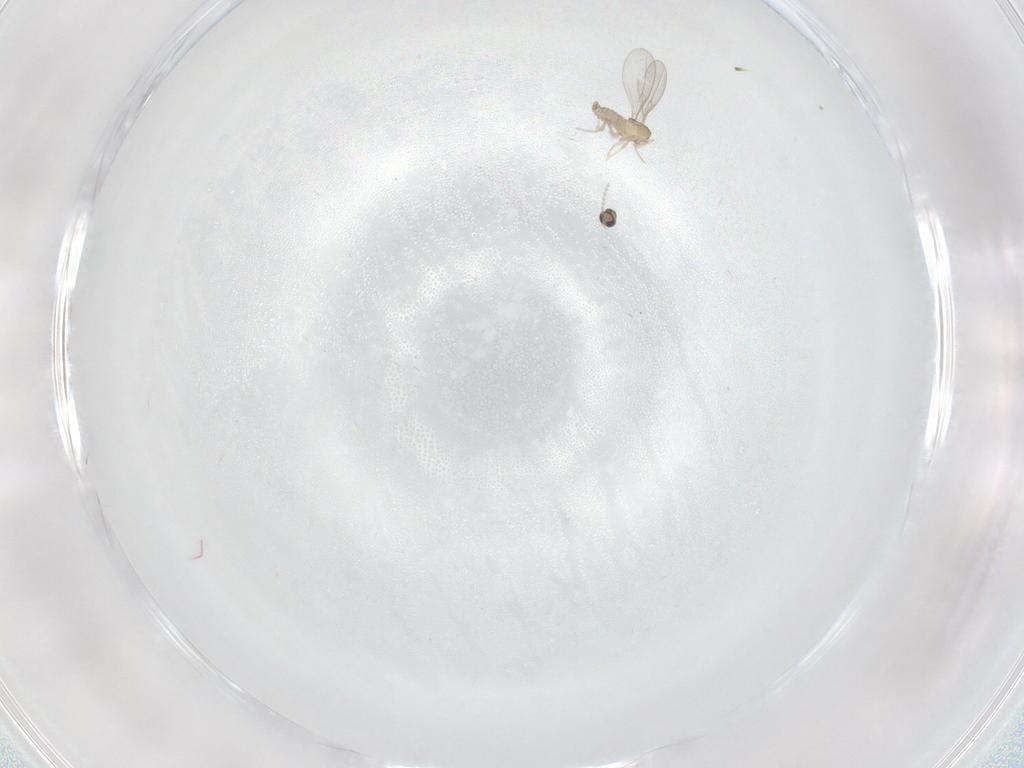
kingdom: Animalia
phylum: Arthropoda
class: Insecta
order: Diptera
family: Cecidomyiidae
